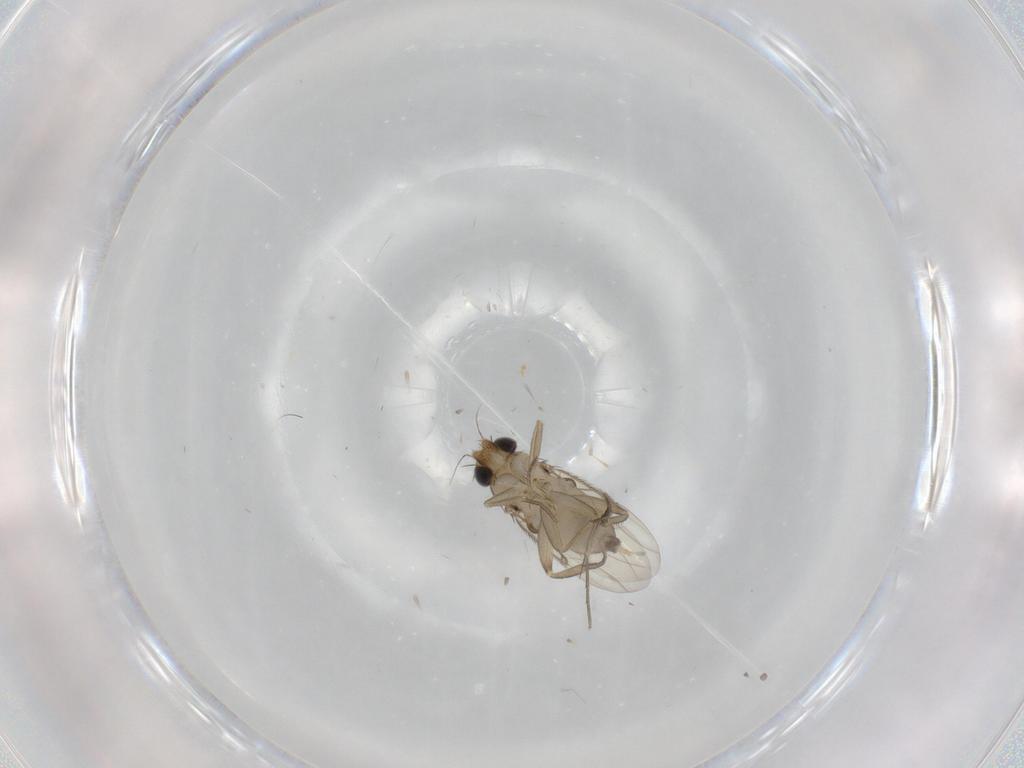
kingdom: Animalia
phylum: Arthropoda
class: Insecta
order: Diptera
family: Phoridae
